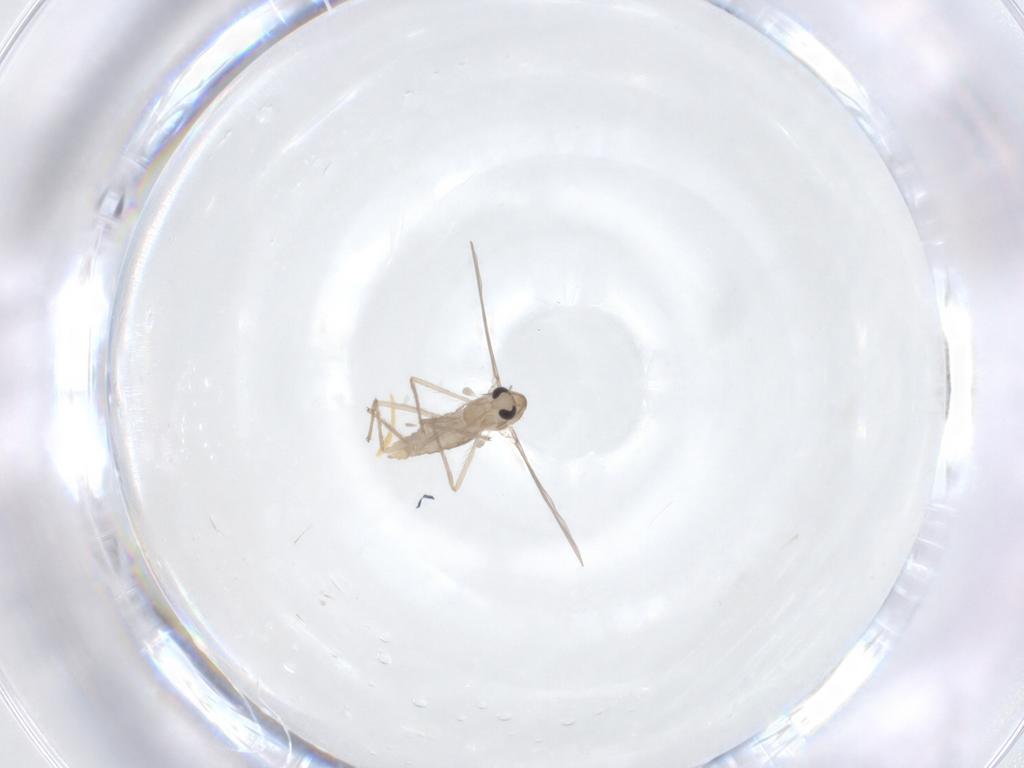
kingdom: Animalia
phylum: Arthropoda
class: Insecta
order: Diptera
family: Chironomidae
